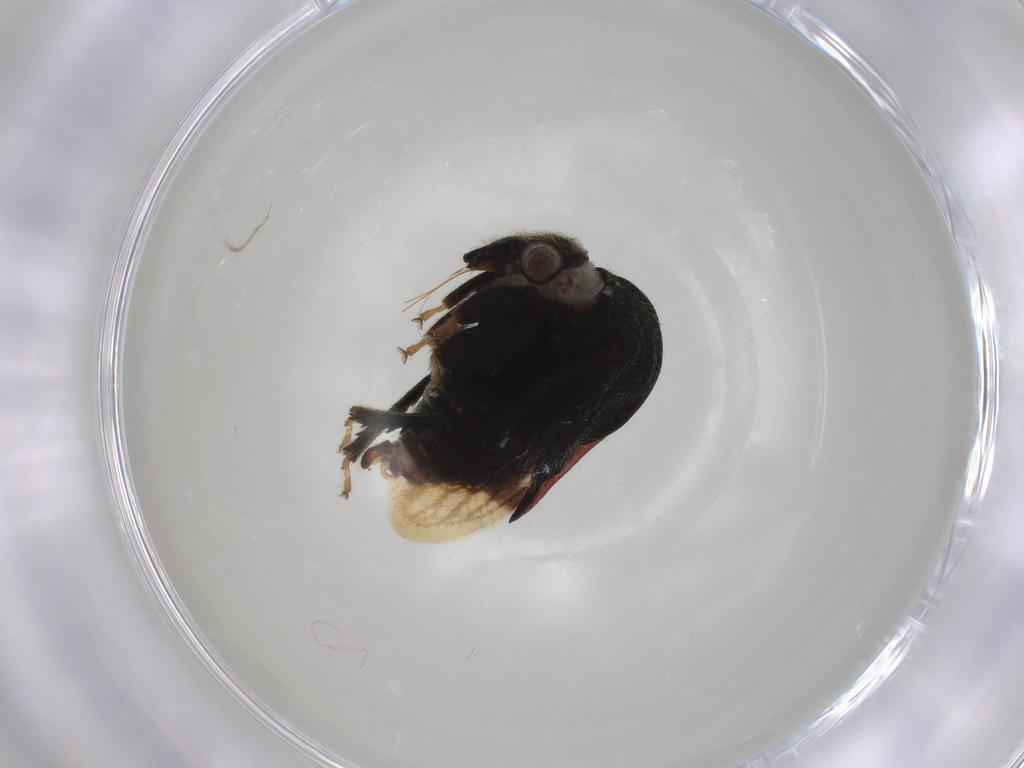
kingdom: Animalia
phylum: Arthropoda
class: Insecta
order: Hemiptera
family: Membracidae
